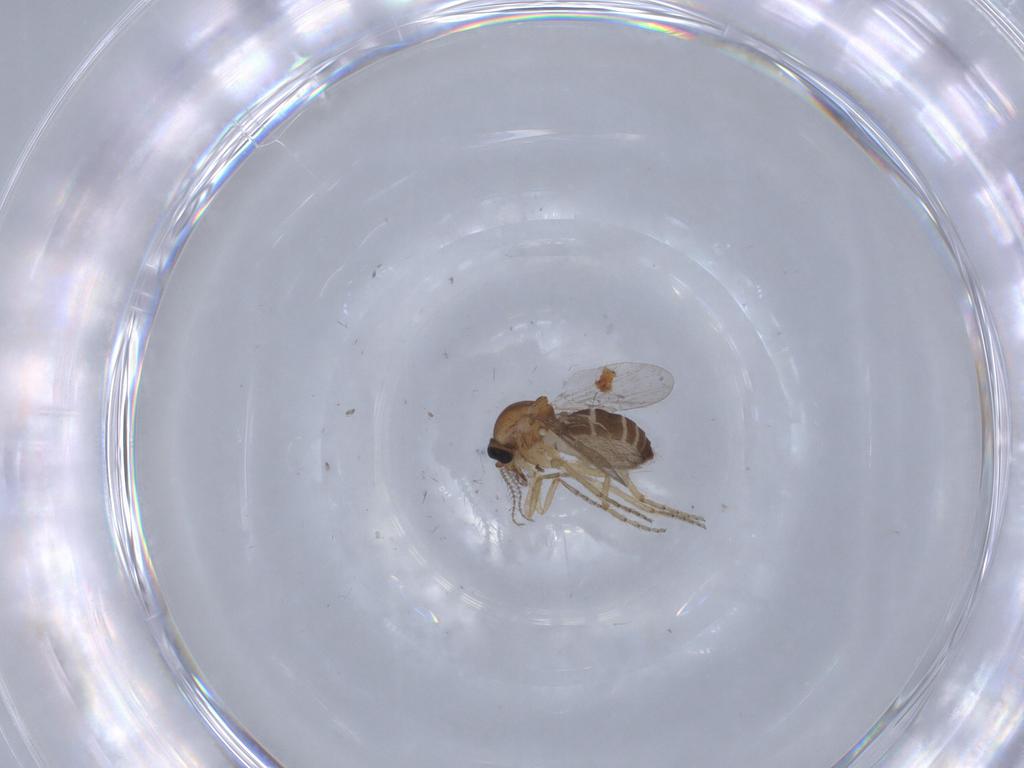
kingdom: Animalia
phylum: Arthropoda
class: Insecta
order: Diptera
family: Ceratopogonidae
